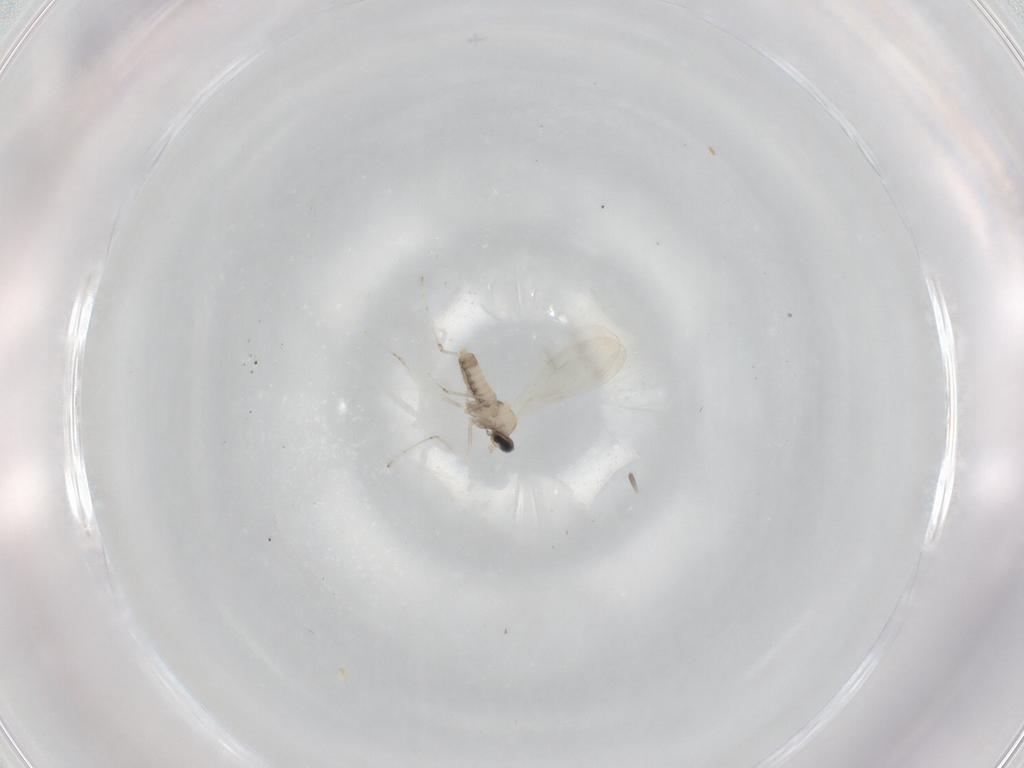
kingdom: Animalia
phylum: Arthropoda
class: Insecta
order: Diptera
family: Cecidomyiidae
